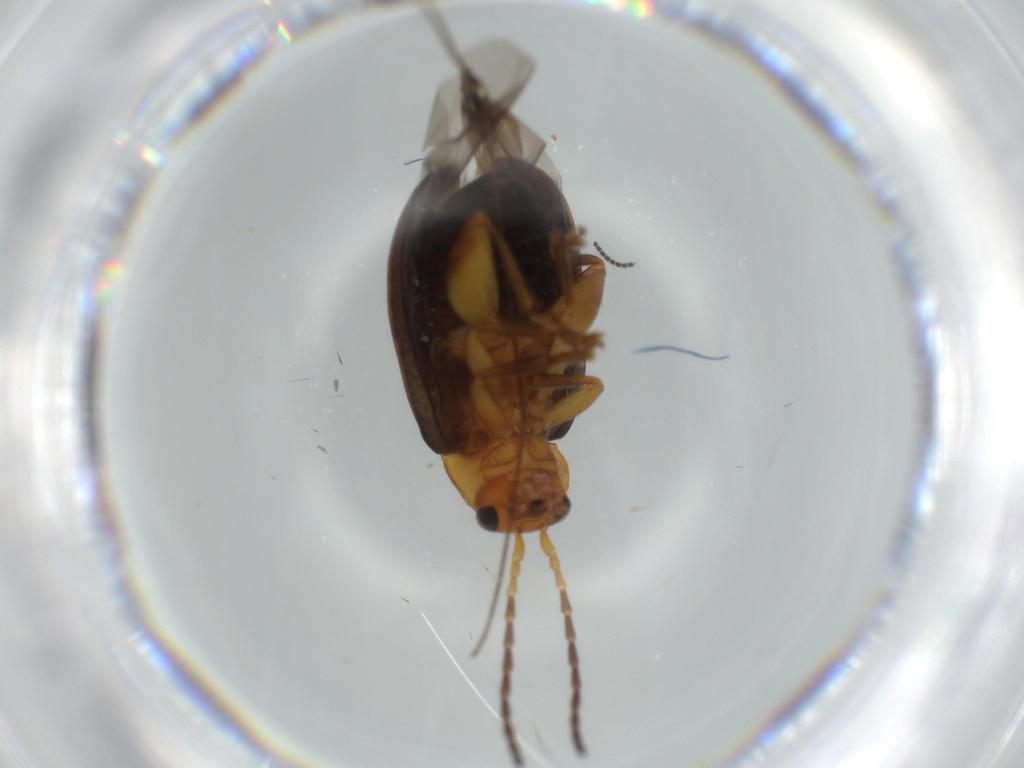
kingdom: Animalia
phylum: Arthropoda
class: Insecta
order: Coleoptera
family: Chrysomelidae
